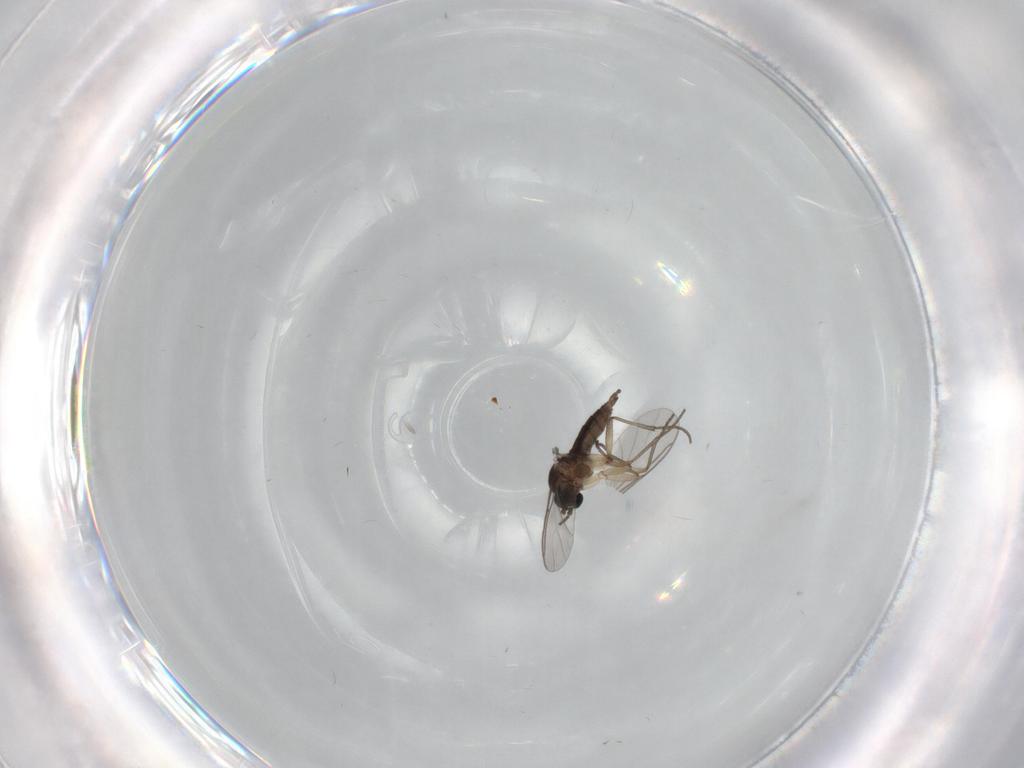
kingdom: Animalia
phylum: Arthropoda
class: Insecta
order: Diptera
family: Sciaridae
